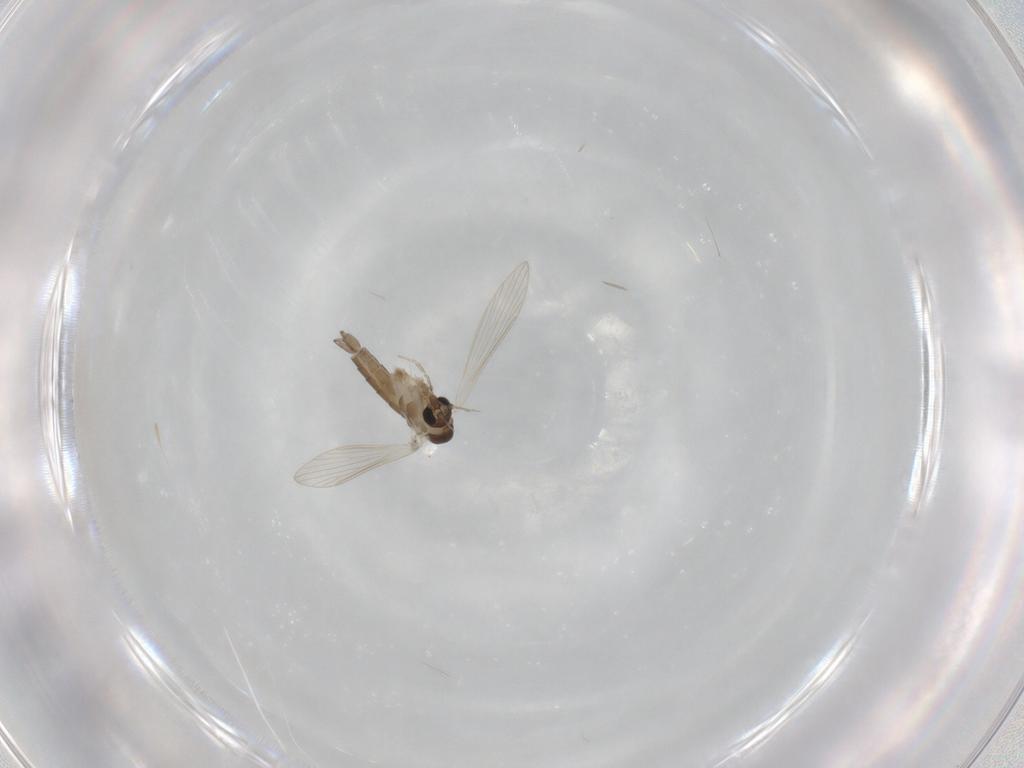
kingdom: Animalia
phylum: Arthropoda
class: Insecta
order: Diptera
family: Psychodidae
